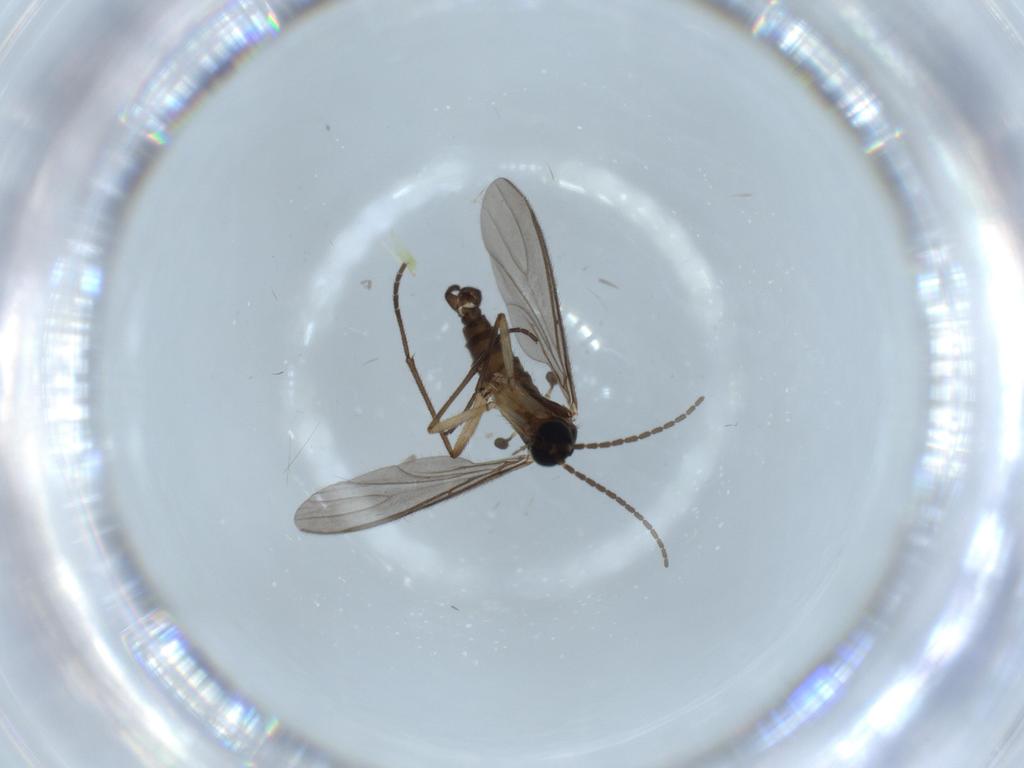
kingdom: Animalia
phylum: Arthropoda
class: Insecta
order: Diptera
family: Sciaridae
